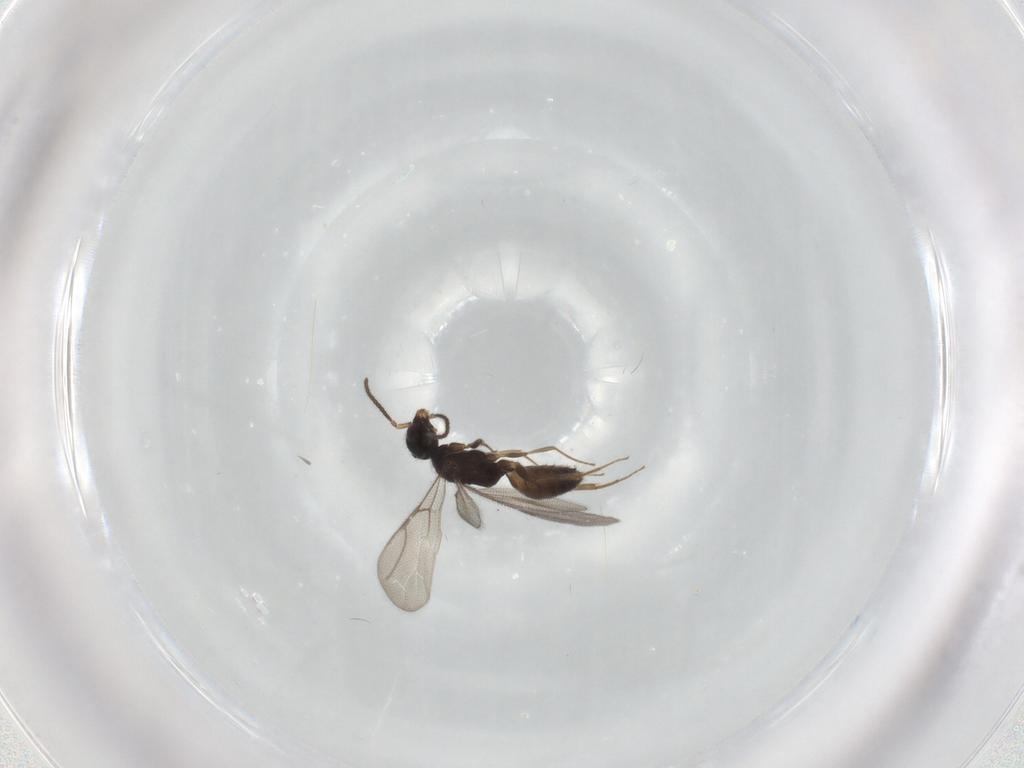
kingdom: Animalia
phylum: Arthropoda
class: Insecta
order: Hymenoptera
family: Bethylidae
